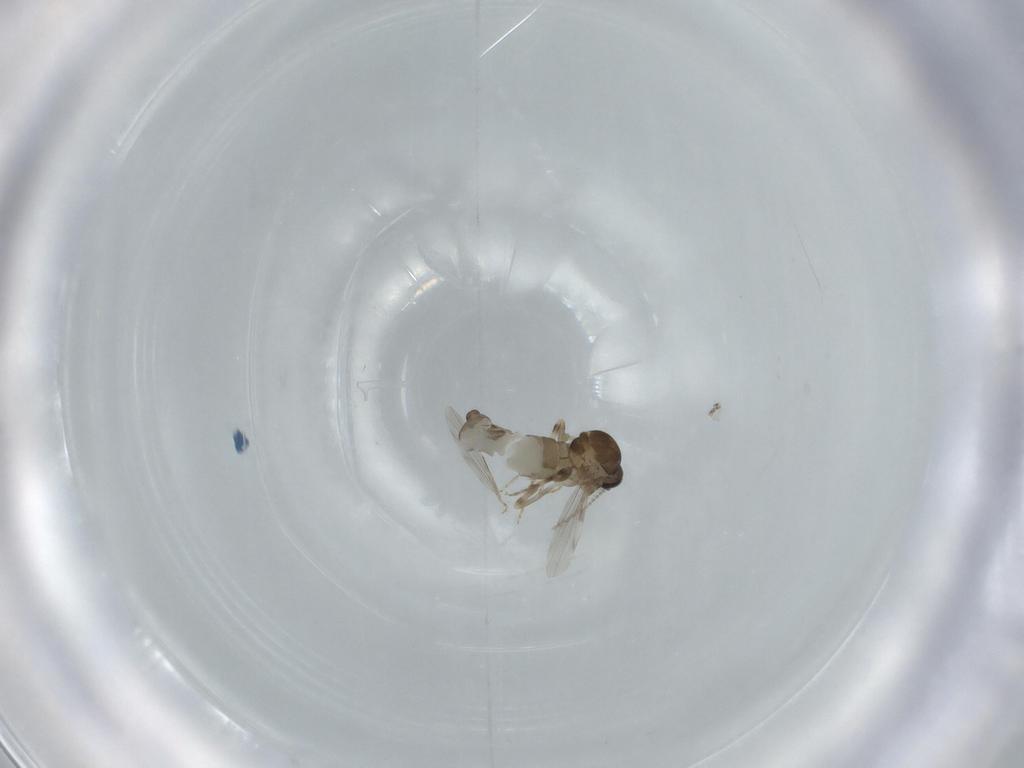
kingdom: Animalia
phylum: Arthropoda
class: Insecta
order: Diptera
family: Ceratopogonidae
